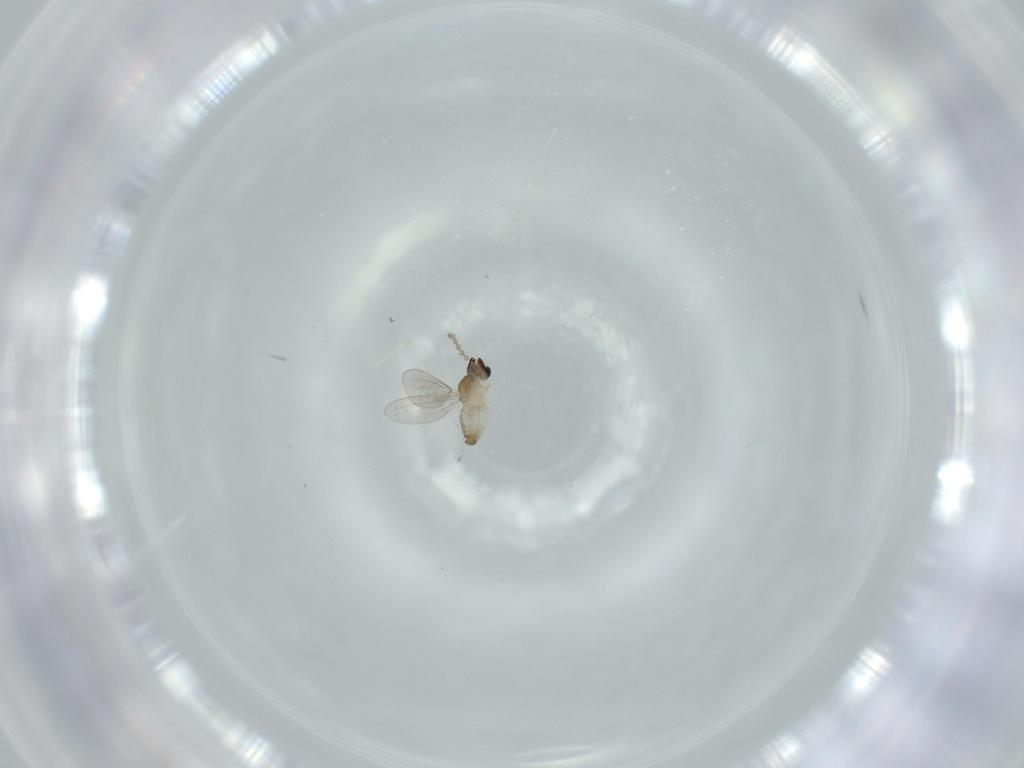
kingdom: Animalia
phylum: Arthropoda
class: Insecta
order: Diptera
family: Cecidomyiidae
